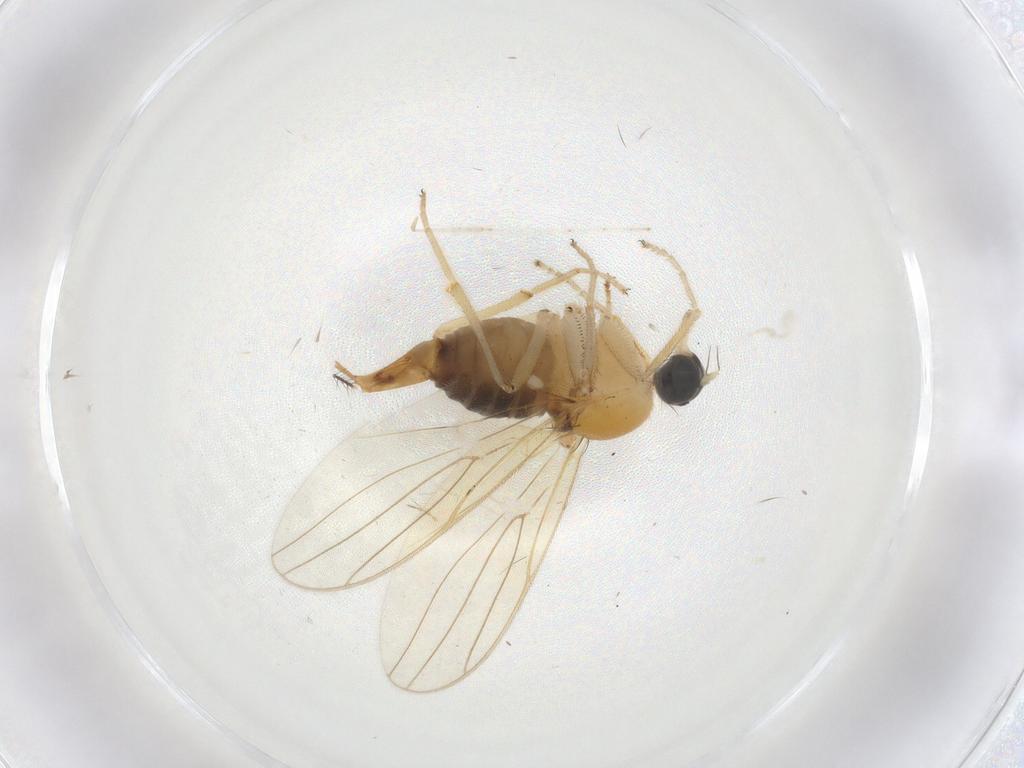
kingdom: Animalia
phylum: Arthropoda
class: Insecta
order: Diptera
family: Hybotidae
